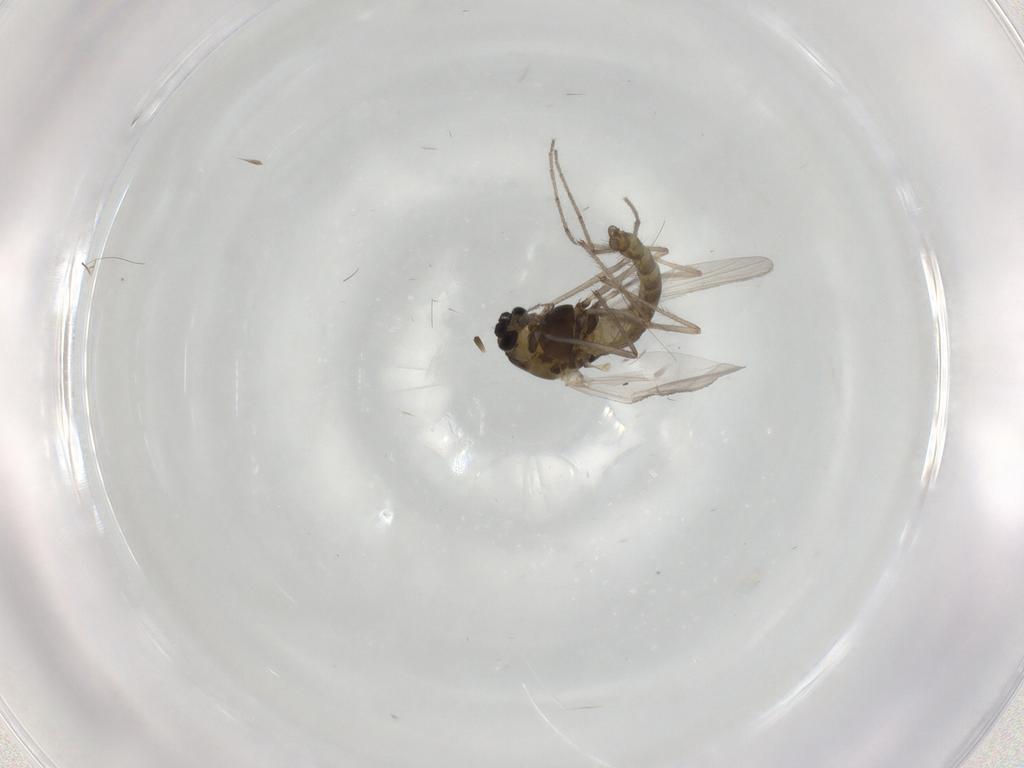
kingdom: Animalia
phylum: Arthropoda
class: Insecta
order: Diptera
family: Chironomidae
